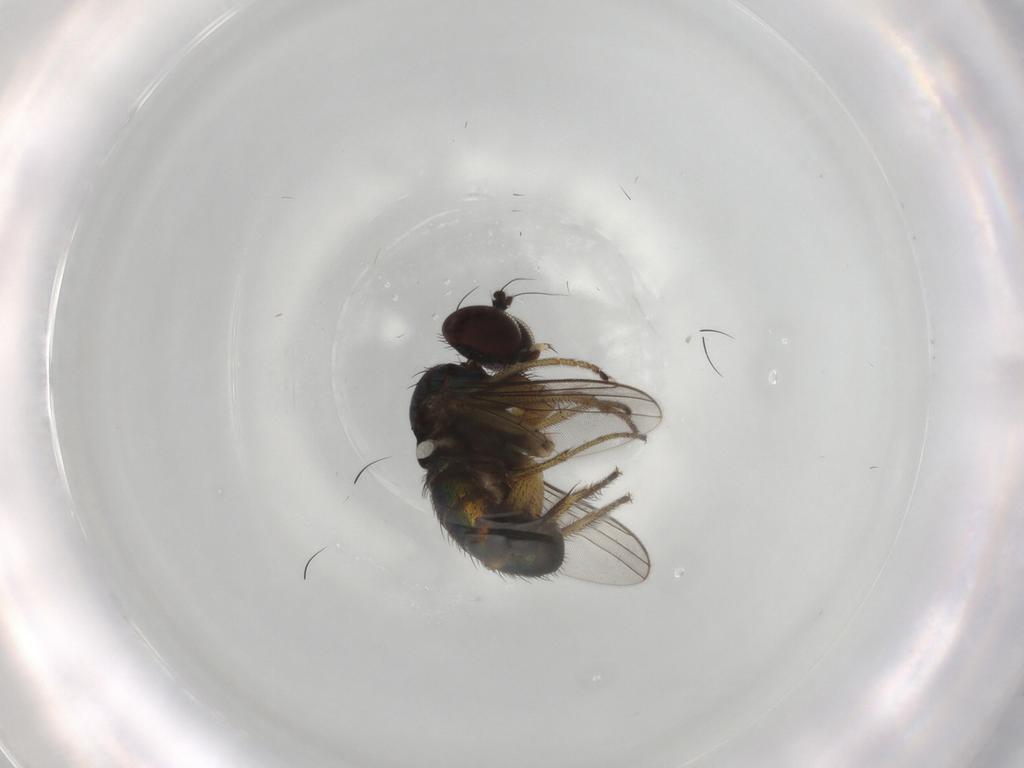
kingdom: Animalia
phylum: Arthropoda
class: Insecta
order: Diptera
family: Dolichopodidae
